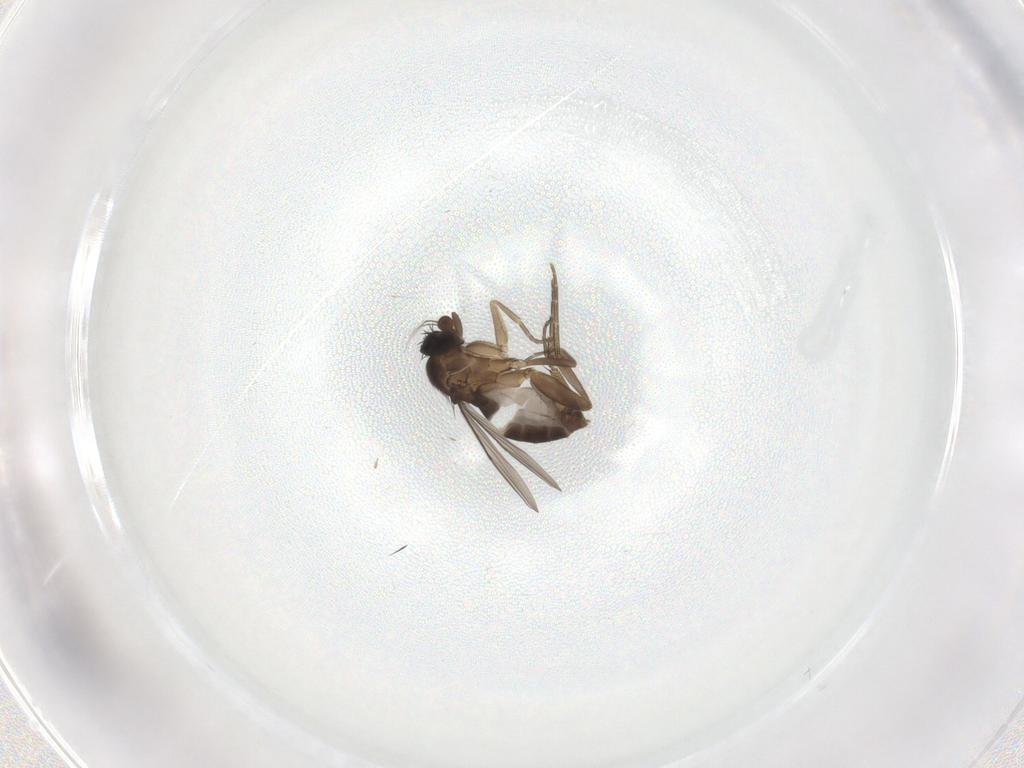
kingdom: Animalia
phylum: Arthropoda
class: Insecta
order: Diptera
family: Phoridae
